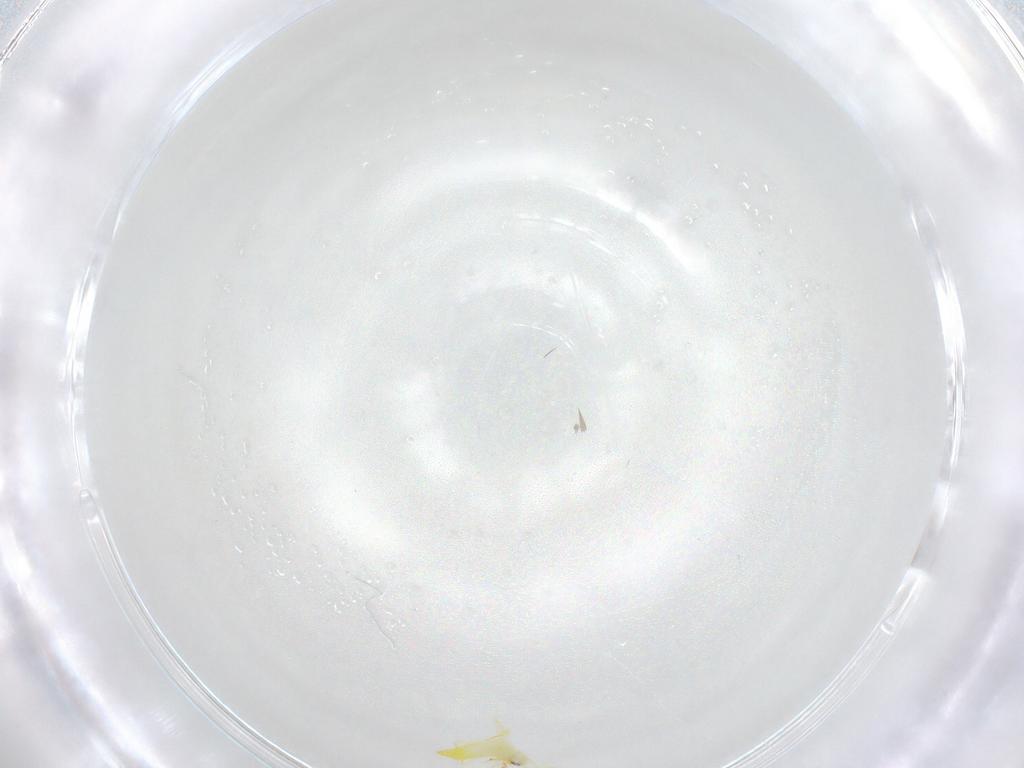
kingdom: Animalia
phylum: Arthropoda
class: Insecta
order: Hemiptera
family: Aleyrodidae
